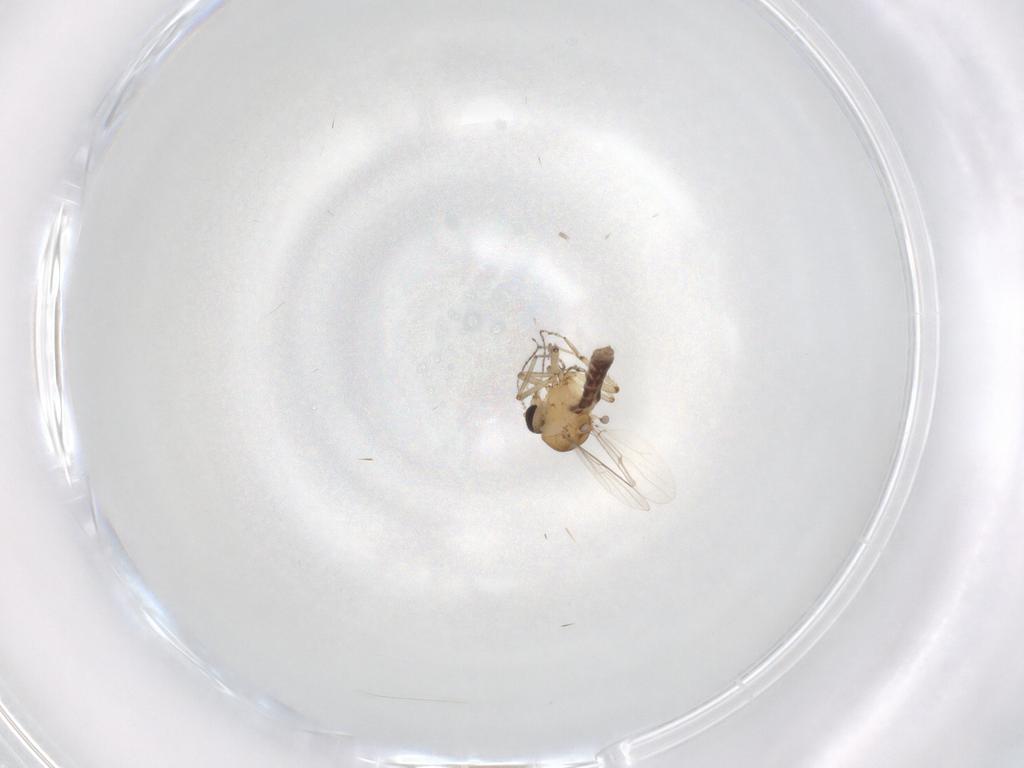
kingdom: Animalia
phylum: Arthropoda
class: Insecta
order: Diptera
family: Ceratopogonidae
